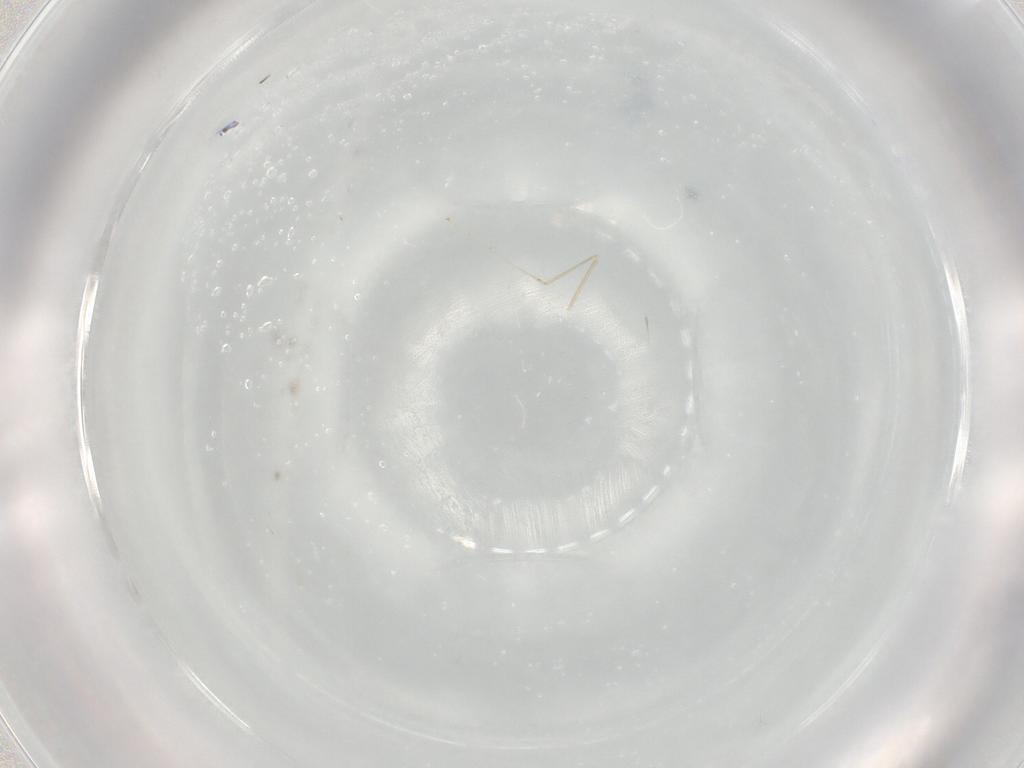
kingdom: Animalia
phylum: Arthropoda
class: Insecta
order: Diptera
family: Cecidomyiidae
